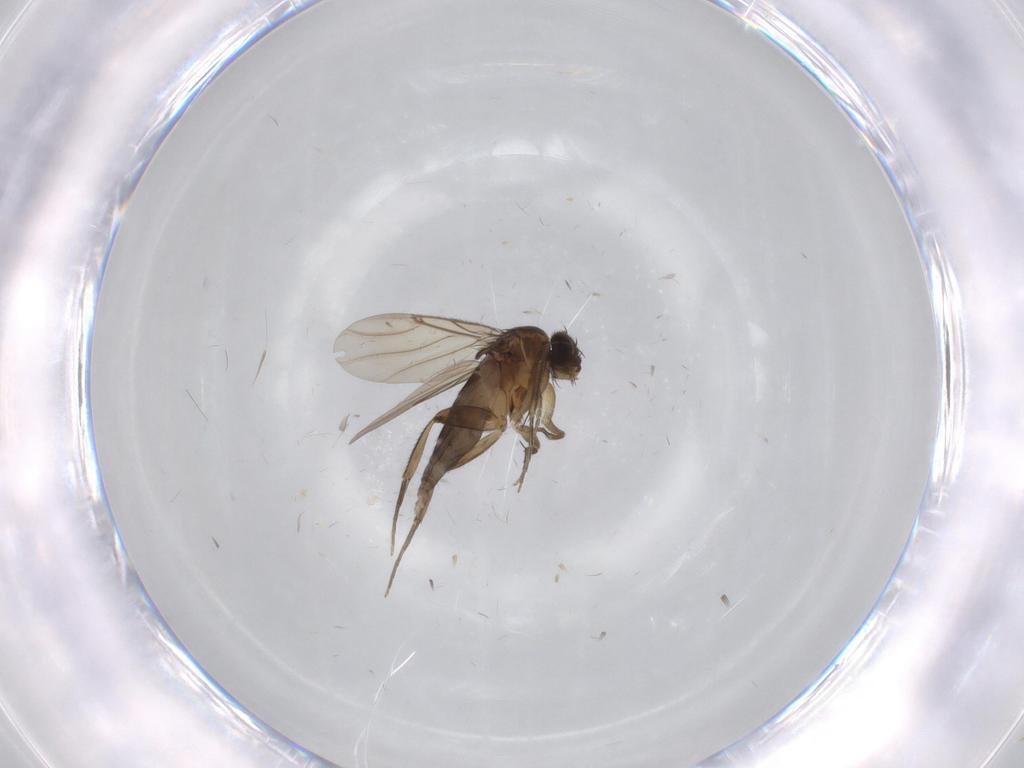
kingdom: Animalia
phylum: Arthropoda
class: Insecta
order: Diptera
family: Phoridae
